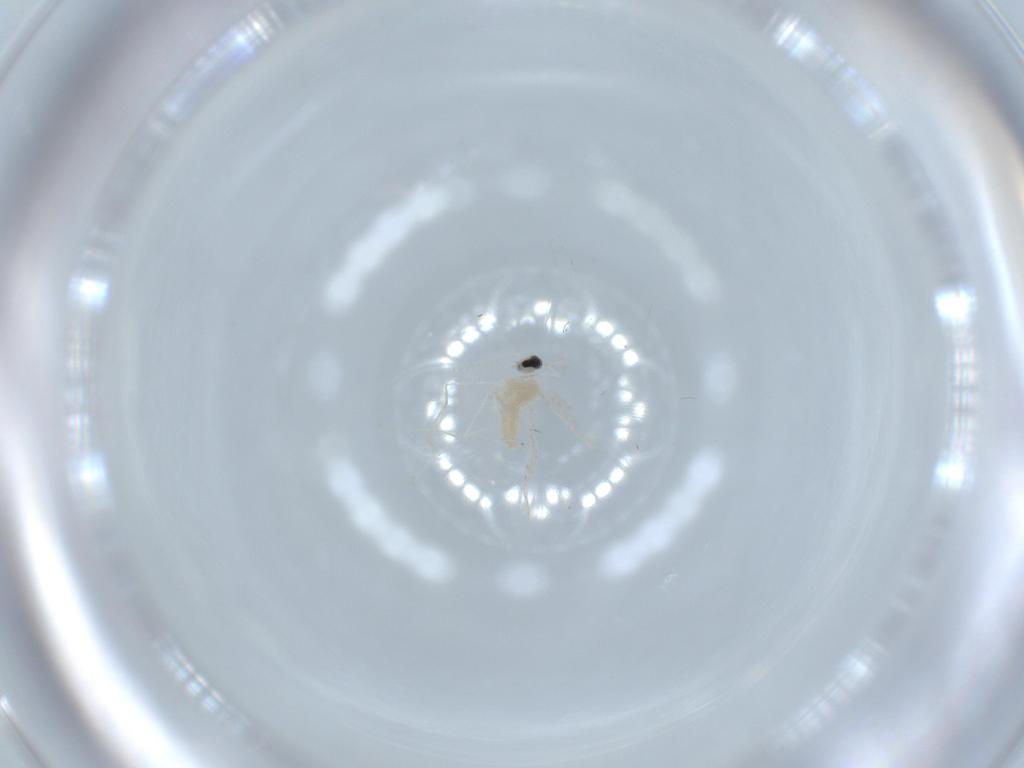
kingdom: Animalia
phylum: Arthropoda
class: Insecta
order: Diptera
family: Cecidomyiidae
